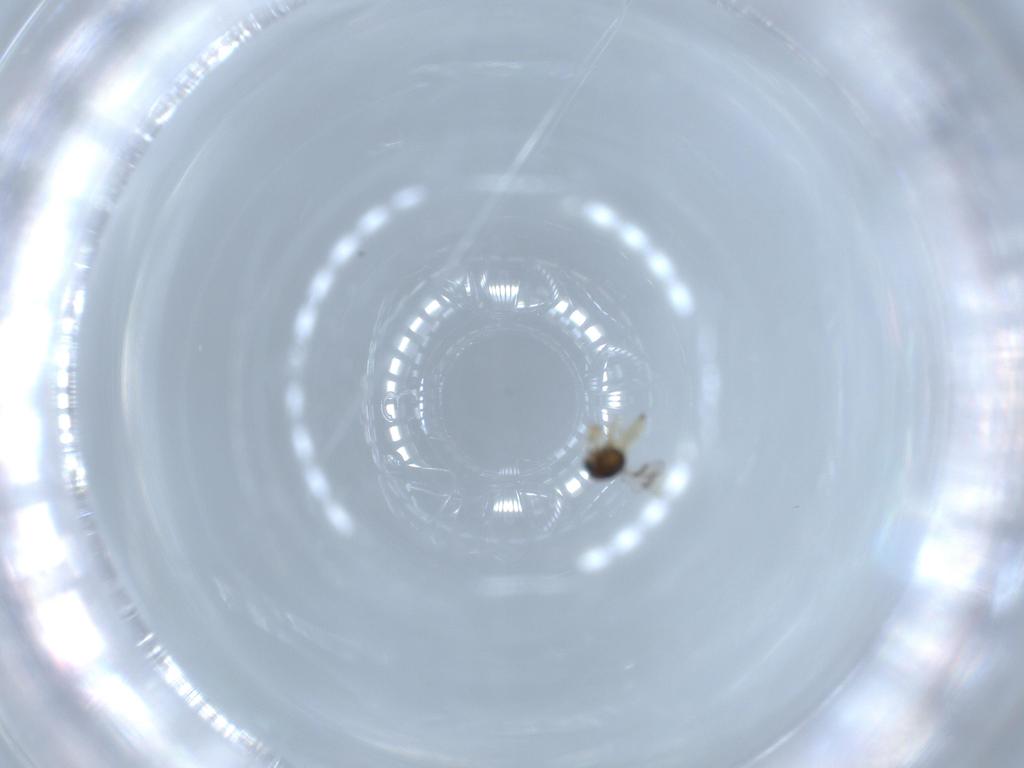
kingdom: Animalia
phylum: Arthropoda
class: Insecta
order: Hymenoptera
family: Scelionidae
